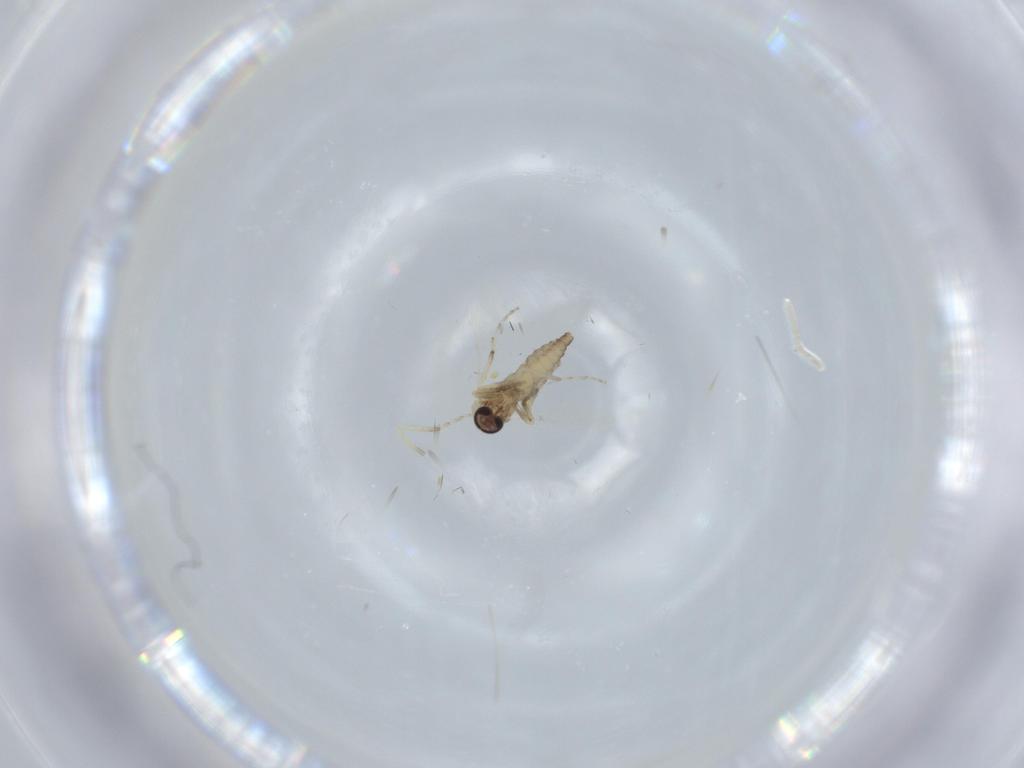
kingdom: Animalia
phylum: Arthropoda
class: Insecta
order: Diptera
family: Ceratopogonidae
